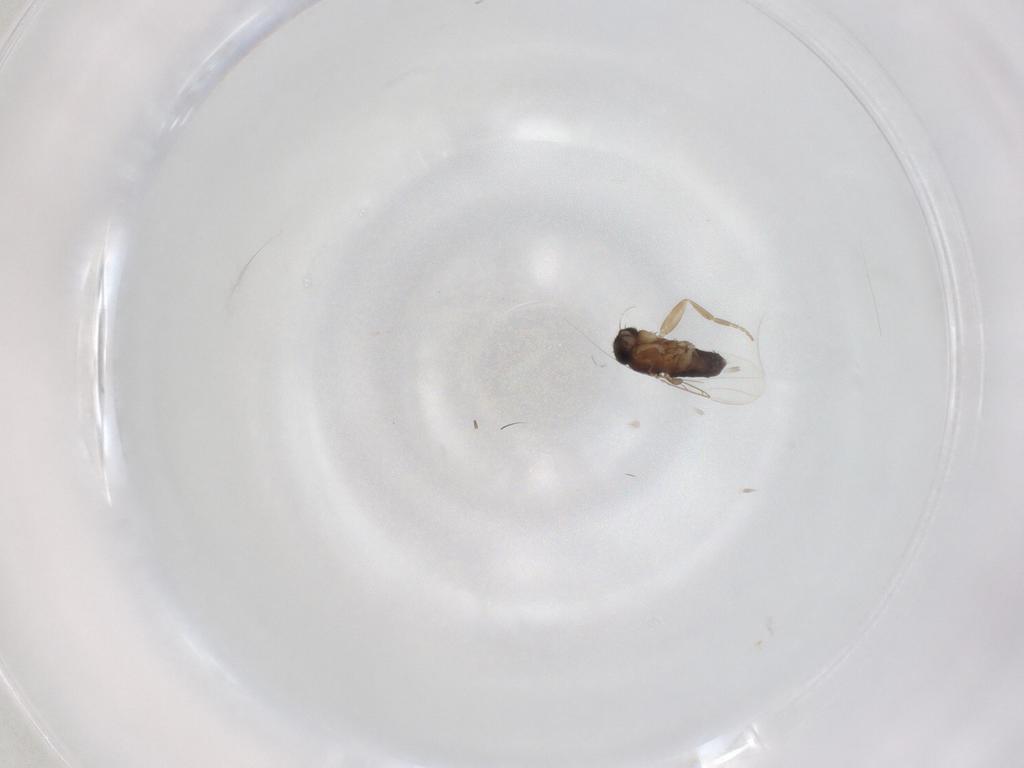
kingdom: Animalia
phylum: Arthropoda
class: Insecta
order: Diptera
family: Phoridae
